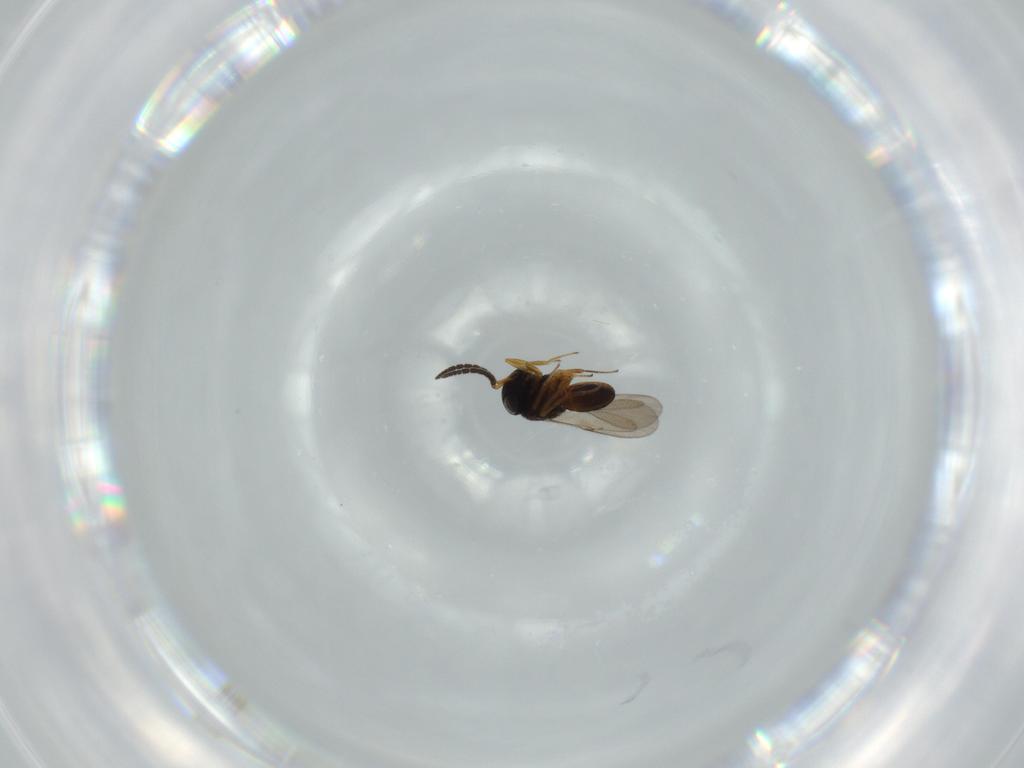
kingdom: Animalia
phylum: Arthropoda
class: Insecta
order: Hymenoptera
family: Scelionidae
